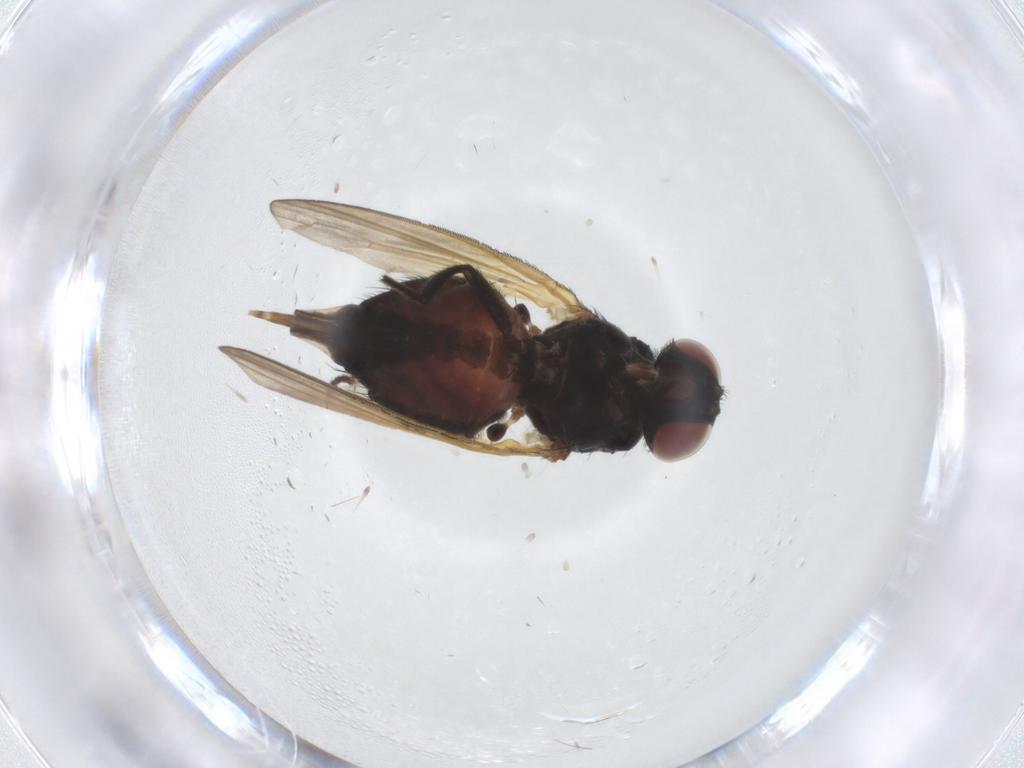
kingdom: Animalia
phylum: Arthropoda
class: Insecta
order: Diptera
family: Chironomidae
